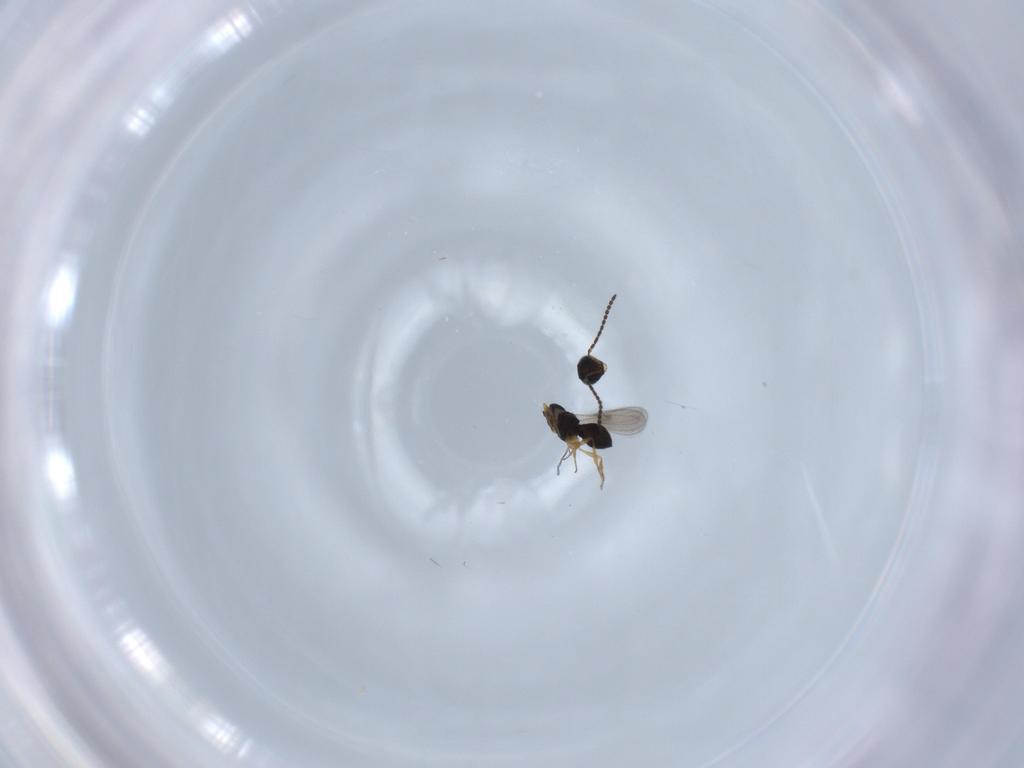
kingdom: Animalia
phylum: Arthropoda
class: Insecta
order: Hymenoptera
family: Scelionidae
